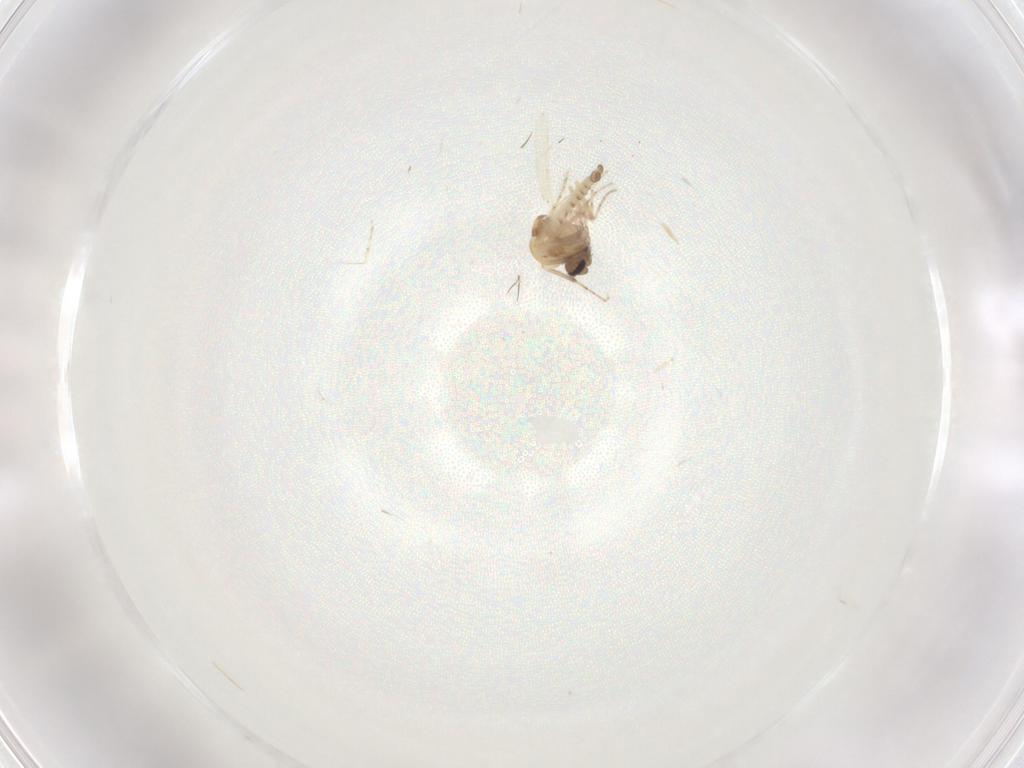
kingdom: Animalia
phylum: Arthropoda
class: Insecta
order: Diptera
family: Ceratopogonidae
